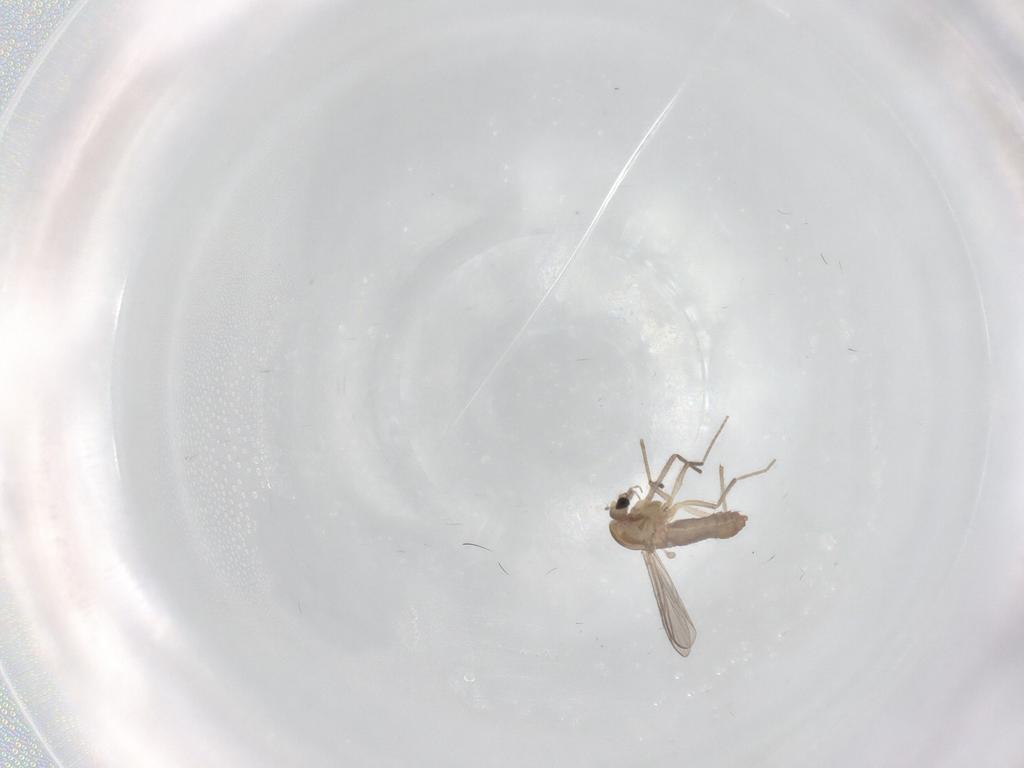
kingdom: Animalia
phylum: Arthropoda
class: Insecta
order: Diptera
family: Chironomidae
